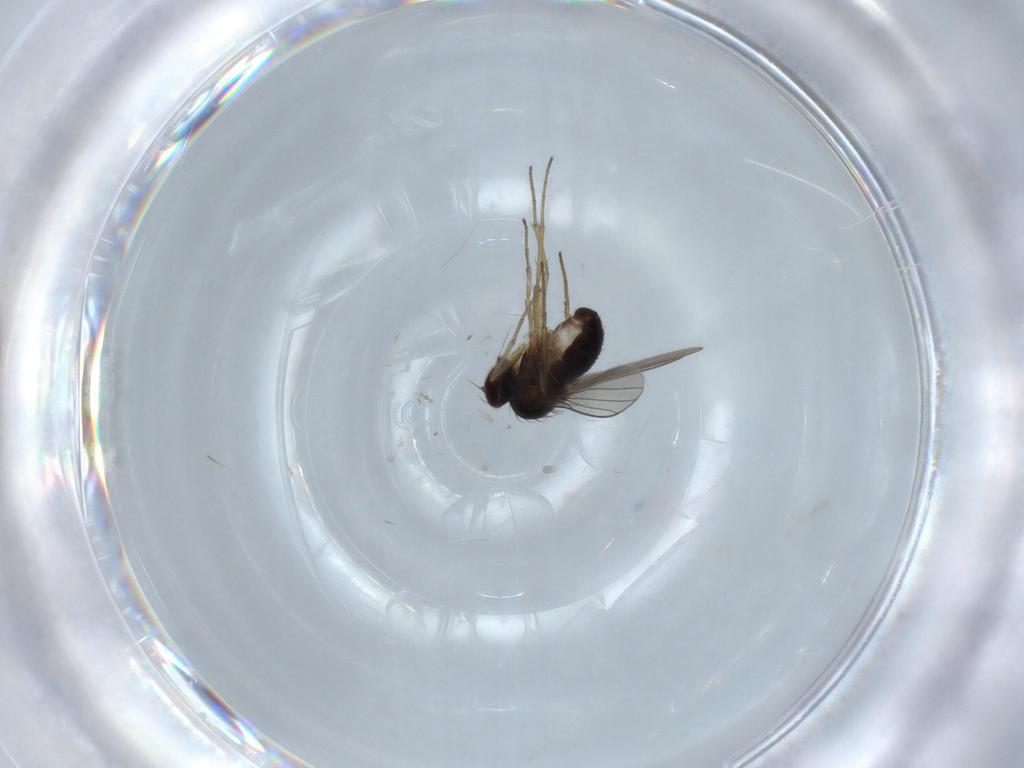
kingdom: Animalia
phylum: Arthropoda
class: Insecta
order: Diptera
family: Dolichopodidae
